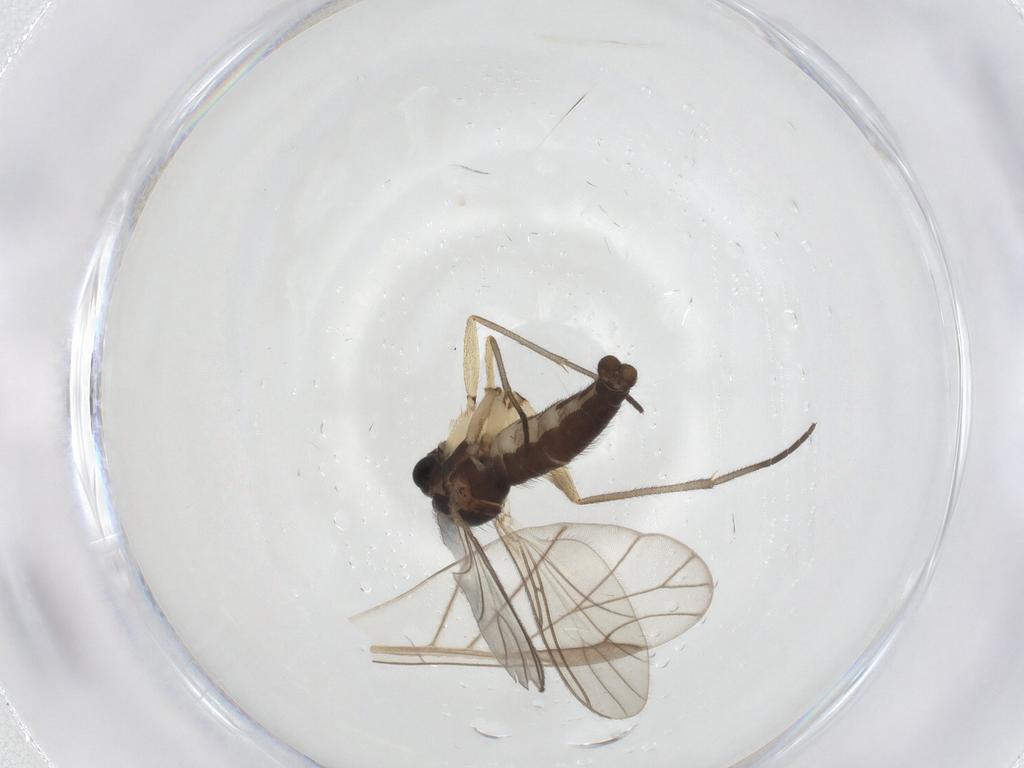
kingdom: Animalia
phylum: Arthropoda
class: Insecta
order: Diptera
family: Sciaridae
